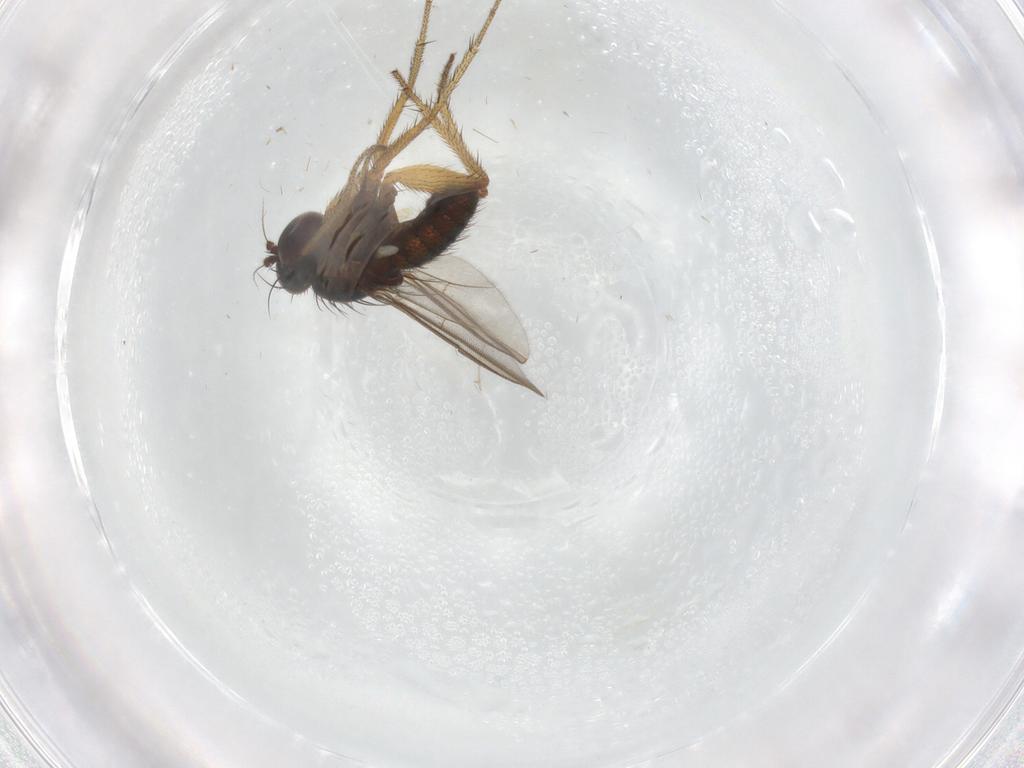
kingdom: Animalia
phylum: Arthropoda
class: Insecta
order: Diptera
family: Dolichopodidae
